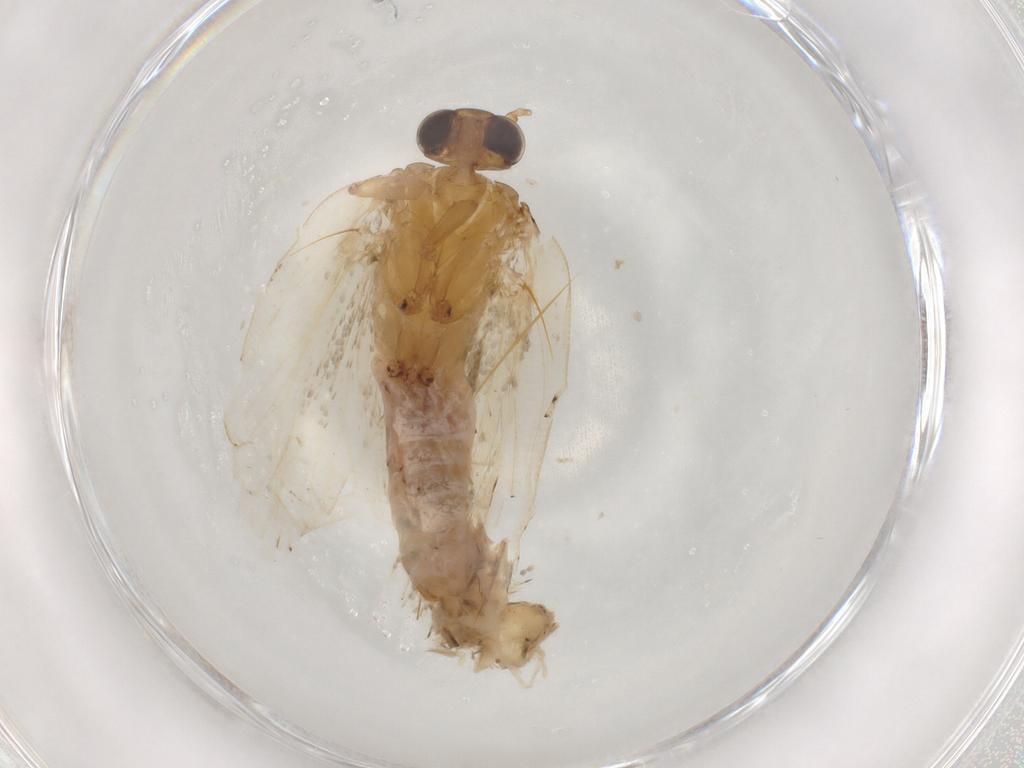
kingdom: Animalia
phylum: Arthropoda
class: Insecta
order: Lepidoptera
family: Tortricidae
